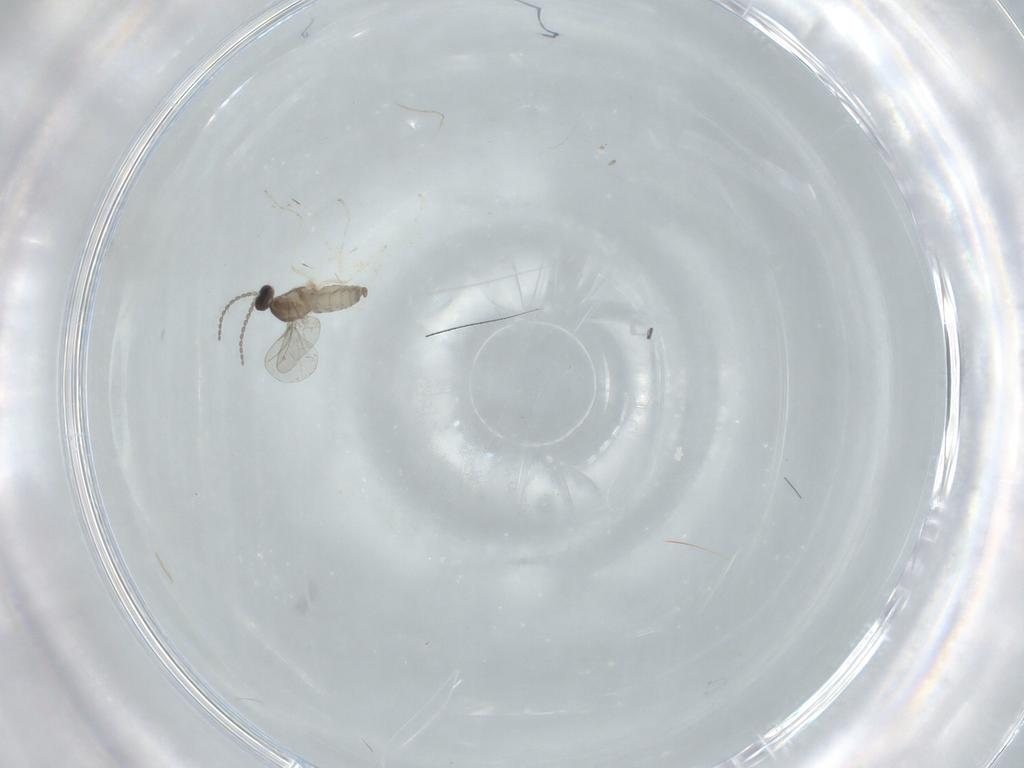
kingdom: Animalia
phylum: Arthropoda
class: Insecta
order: Diptera
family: Cecidomyiidae
